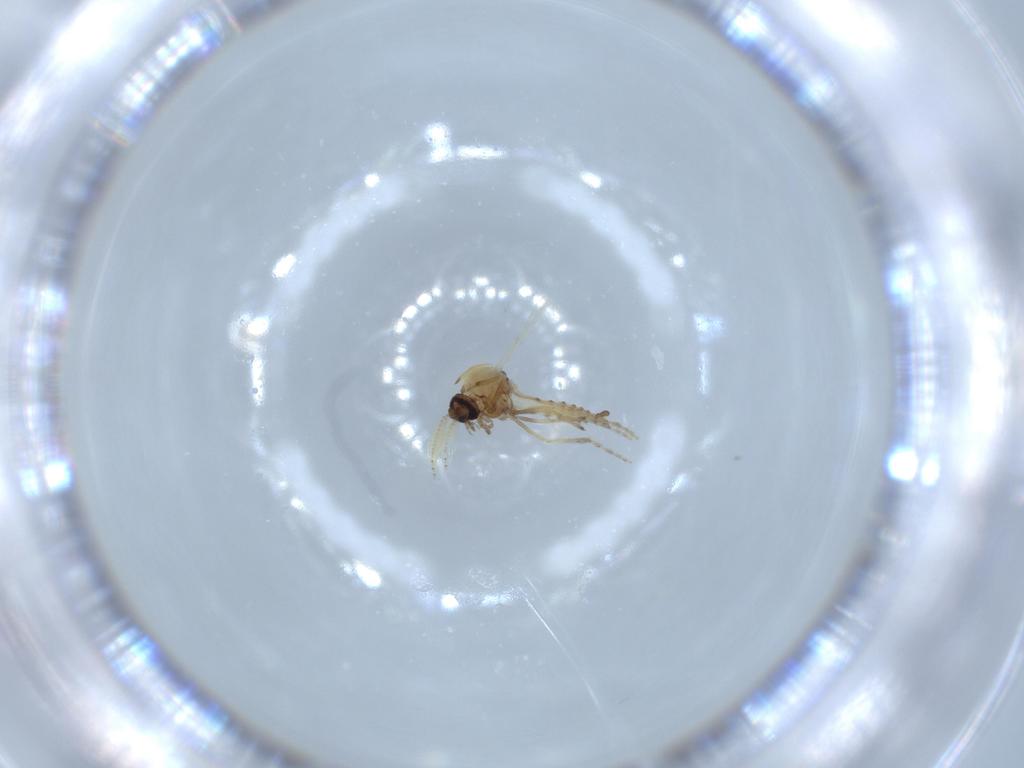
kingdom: Animalia
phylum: Arthropoda
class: Insecta
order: Diptera
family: Ceratopogonidae
